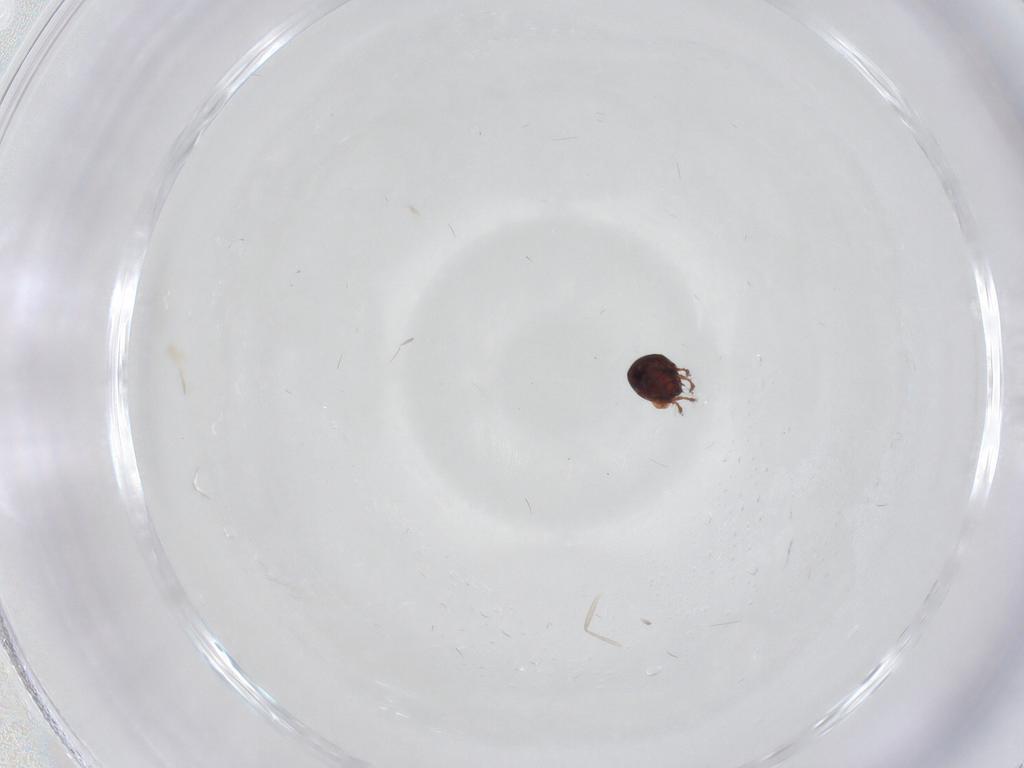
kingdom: Animalia
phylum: Arthropoda
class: Arachnida
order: Sarcoptiformes
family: Ceratozetidae
